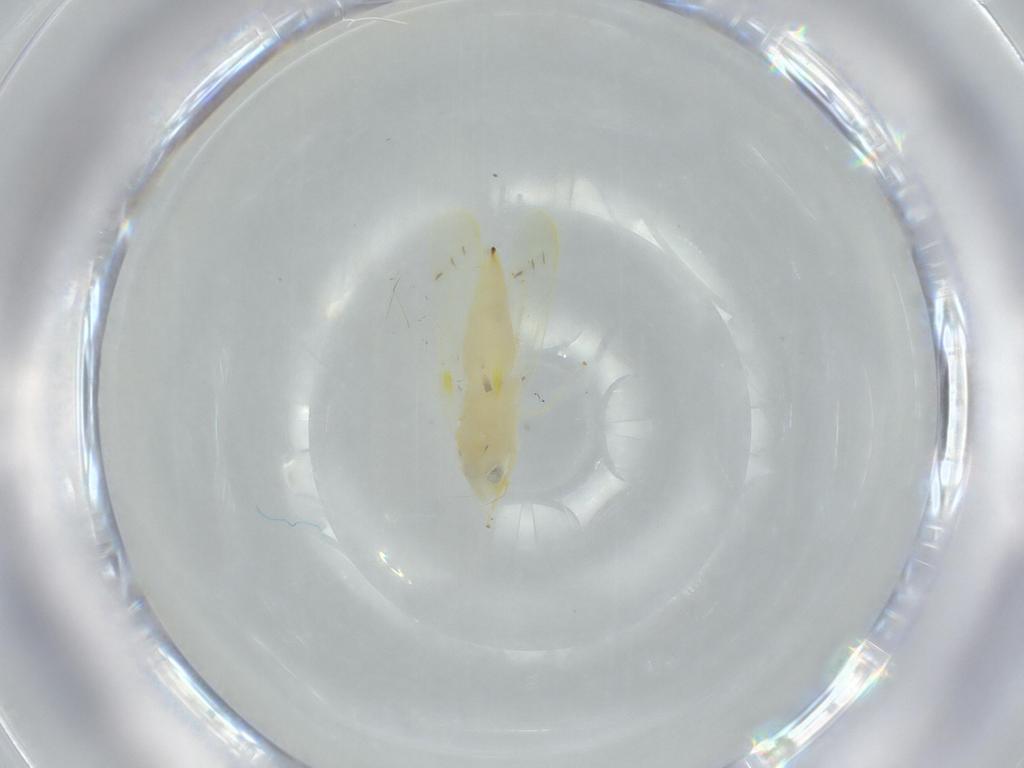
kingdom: Animalia
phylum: Arthropoda
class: Insecta
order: Hemiptera
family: Cicadellidae
